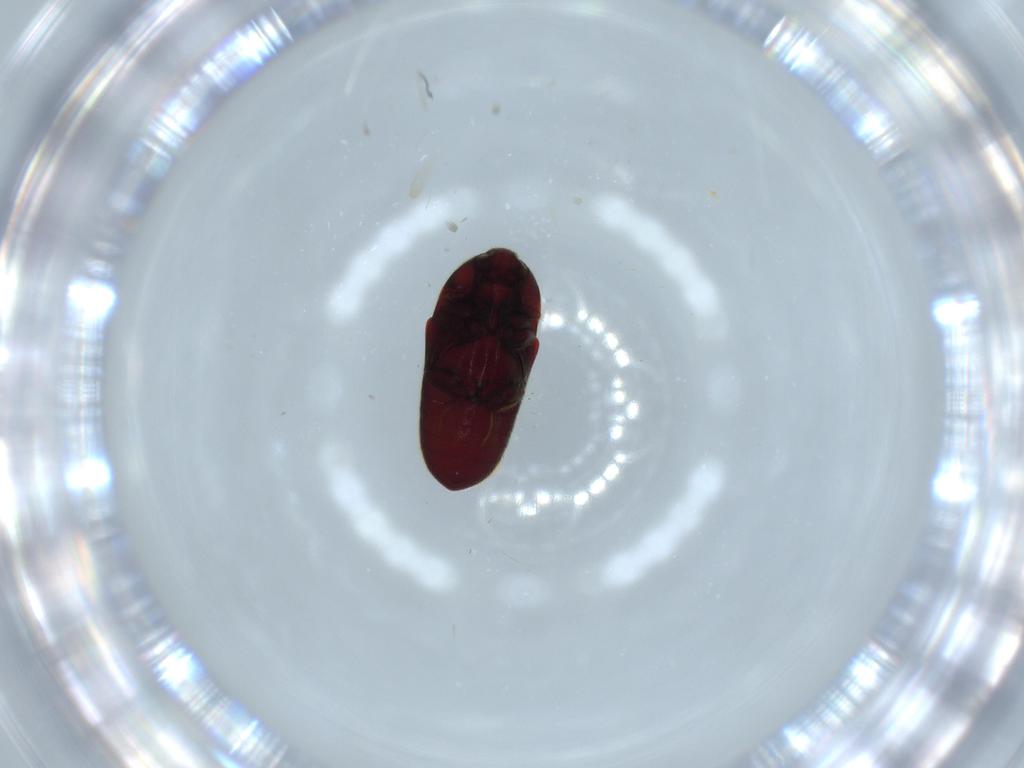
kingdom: Animalia
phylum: Arthropoda
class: Insecta
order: Coleoptera
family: Throscidae
